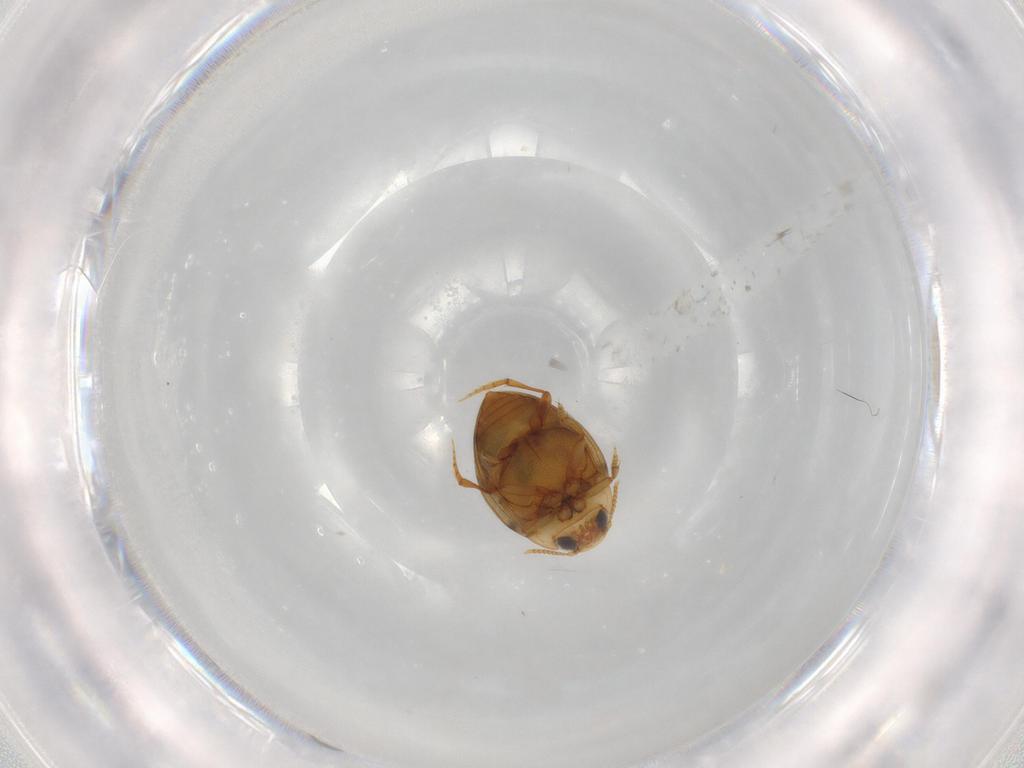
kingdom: Animalia
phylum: Arthropoda
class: Insecta
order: Coleoptera
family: Dytiscidae
